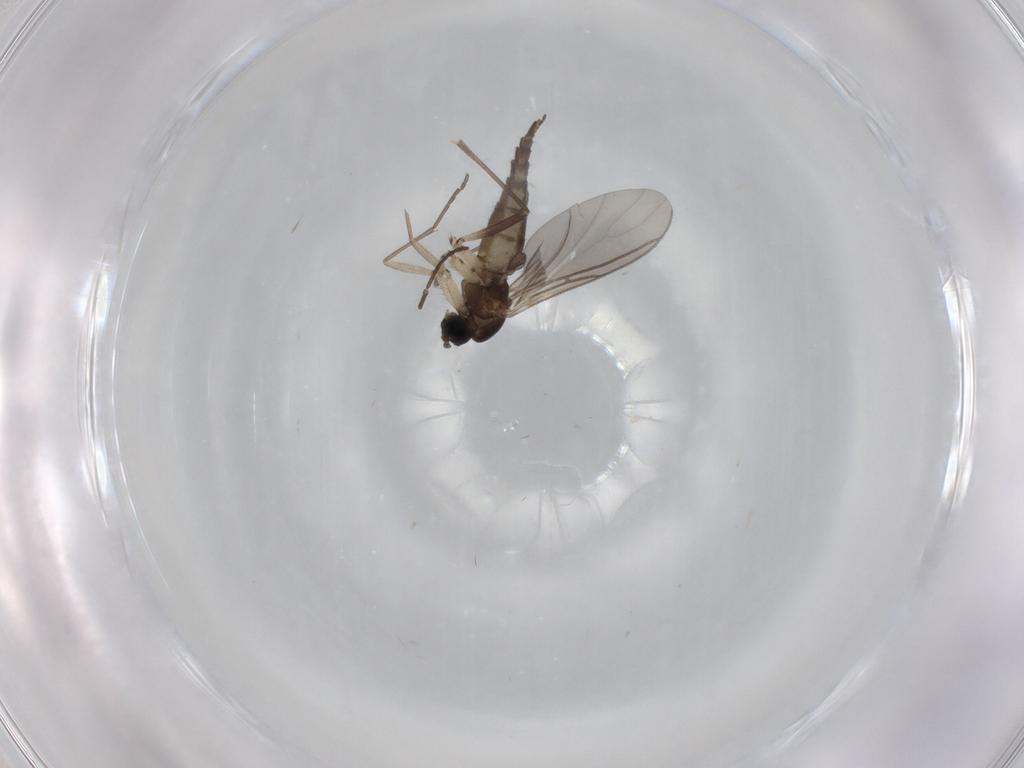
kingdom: Animalia
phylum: Arthropoda
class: Insecta
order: Diptera
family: Sciaridae
